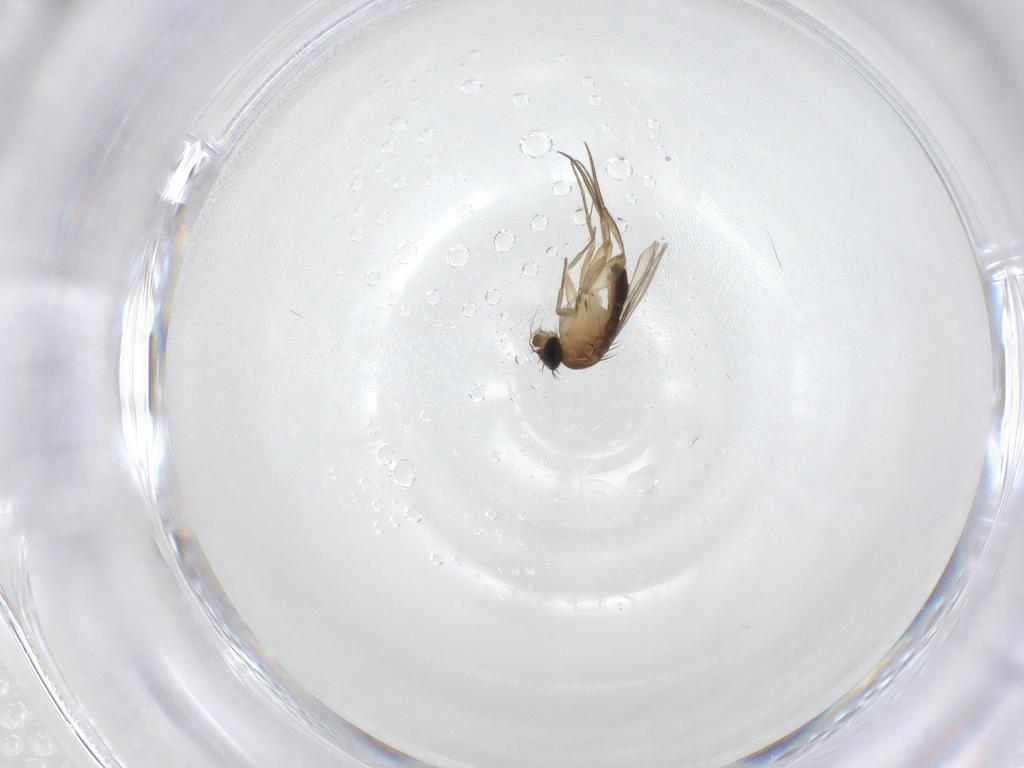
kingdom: Animalia
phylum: Arthropoda
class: Insecta
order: Diptera
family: Phoridae
